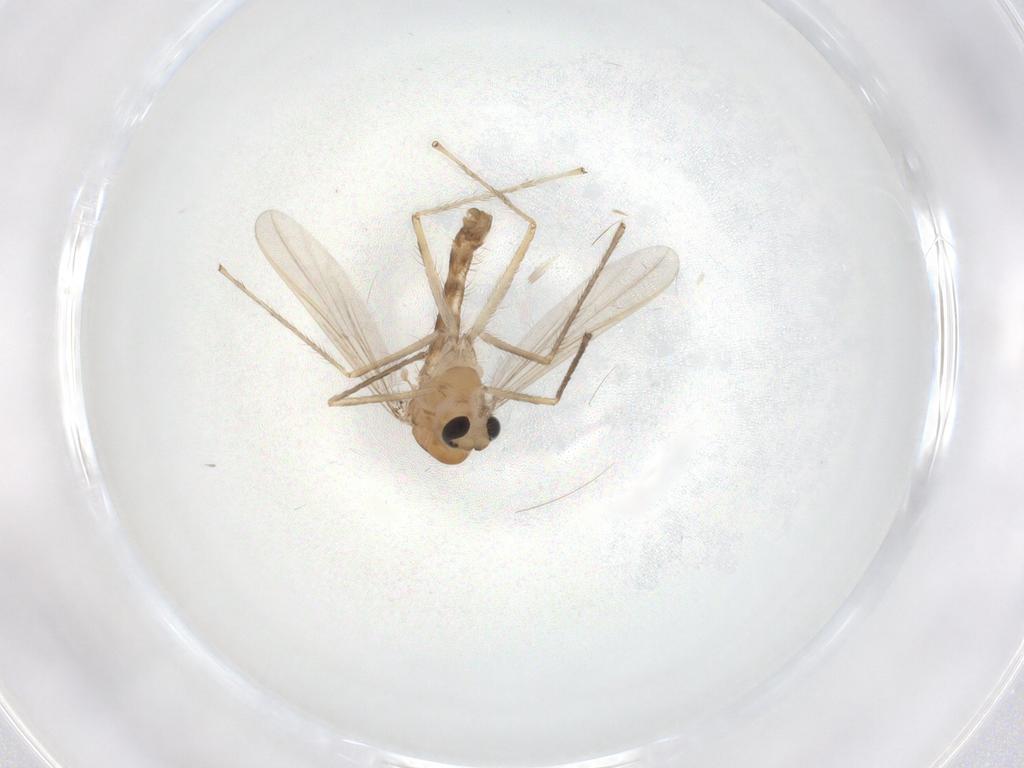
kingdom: Animalia
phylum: Arthropoda
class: Insecta
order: Diptera
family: Chironomidae
